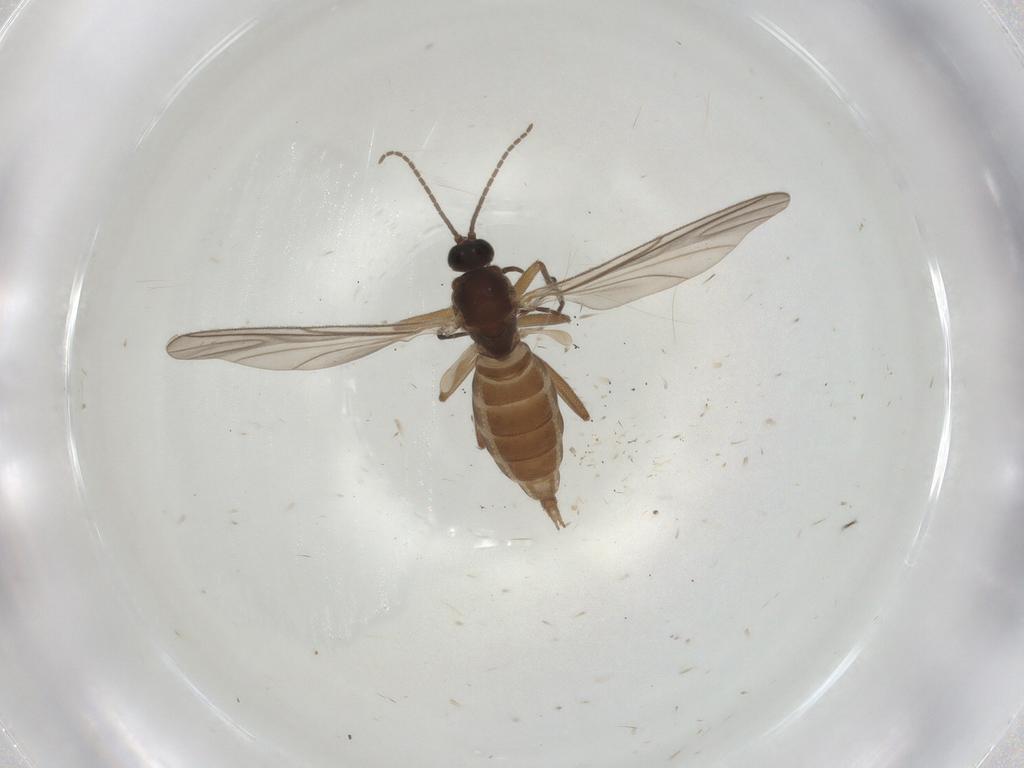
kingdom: Animalia
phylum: Arthropoda
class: Insecta
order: Diptera
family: Sciaridae
